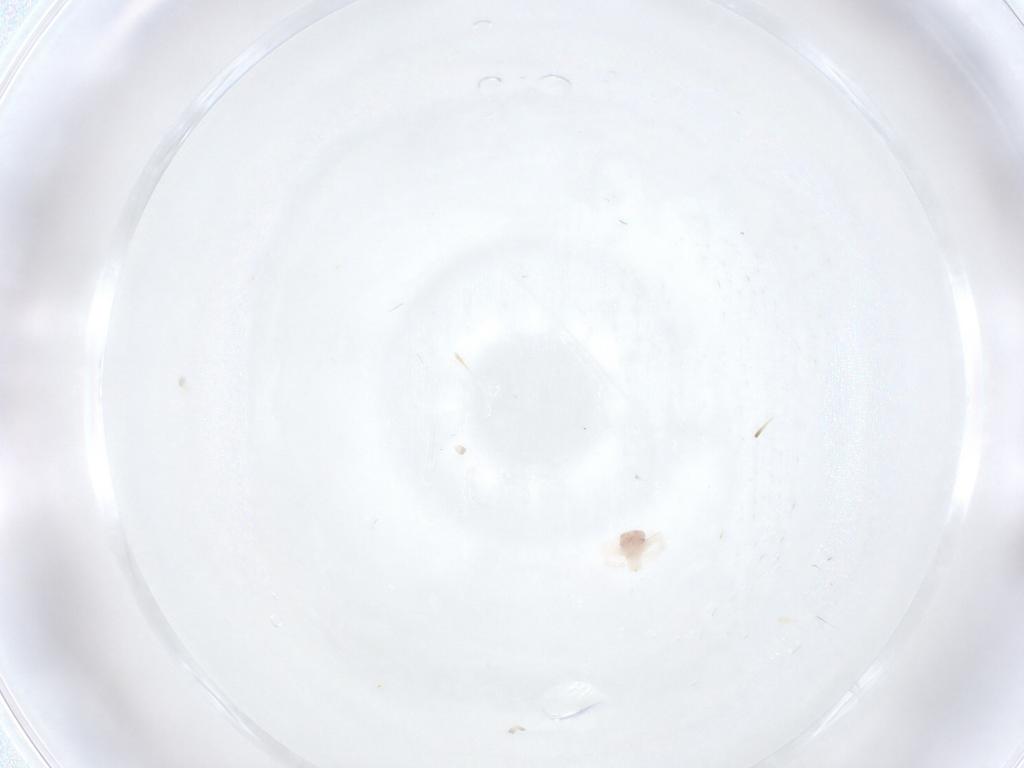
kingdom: Animalia
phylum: Arthropoda
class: Arachnida
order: Trombidiformes
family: Anystidae
